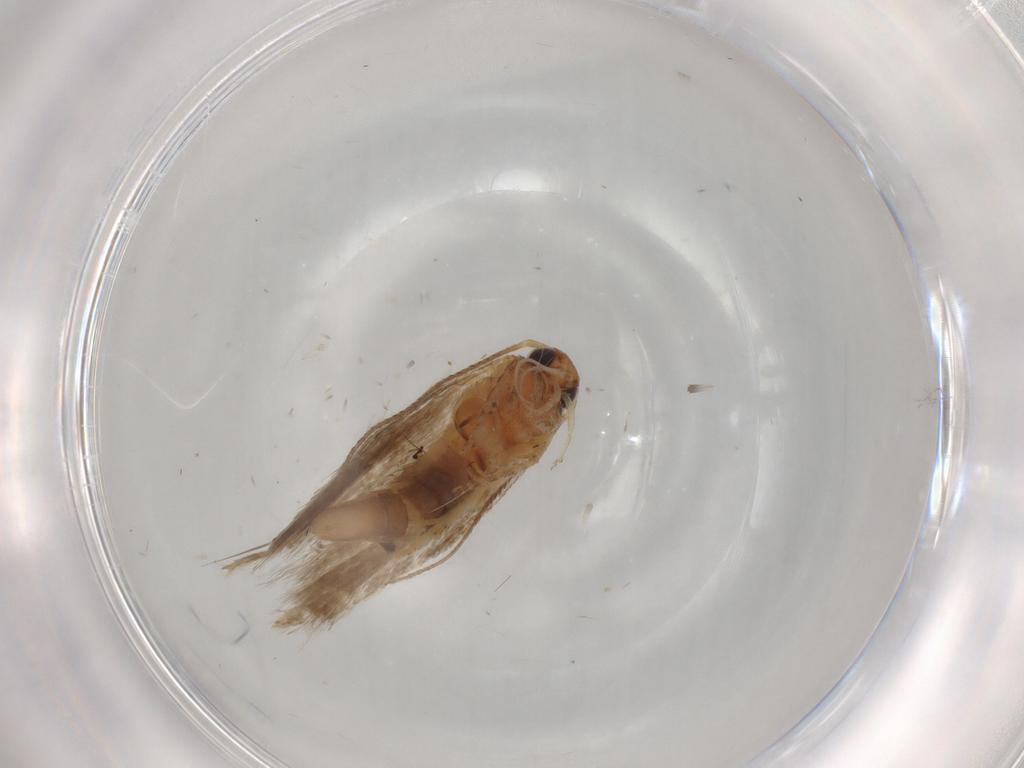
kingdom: Animalia
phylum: Arthropoda
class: Insecta
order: Lepidoptera
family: Gelechiidae
